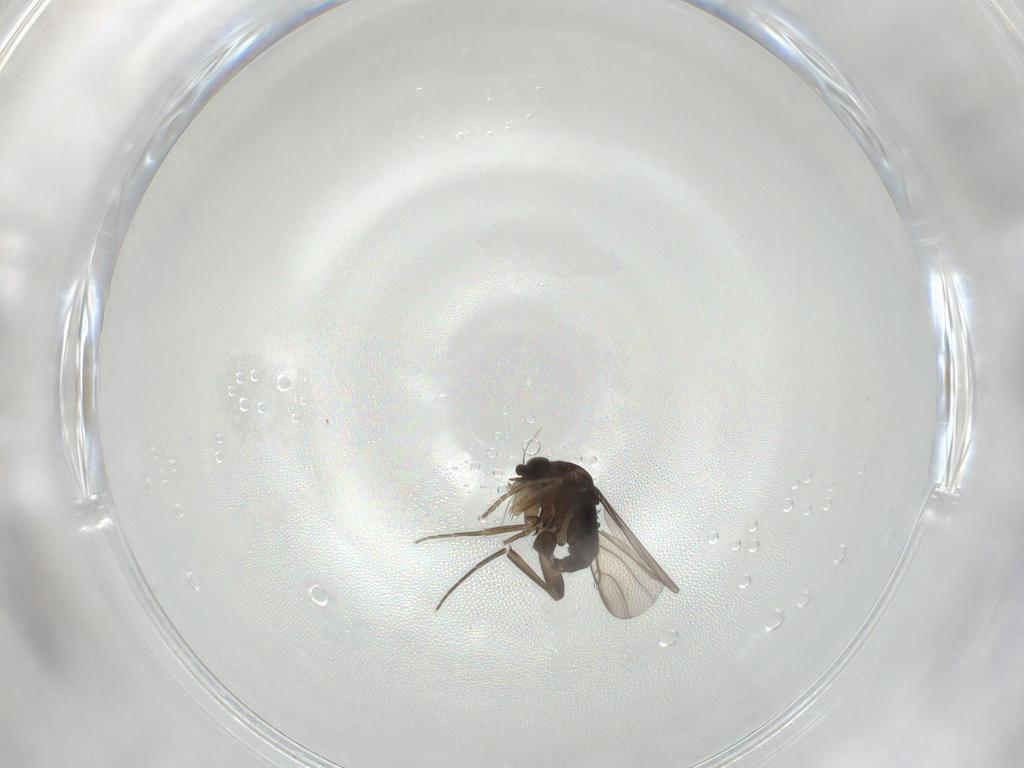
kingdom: Animalia
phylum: Arthropoda
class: Insecta
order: Diptera
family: Phoridae
